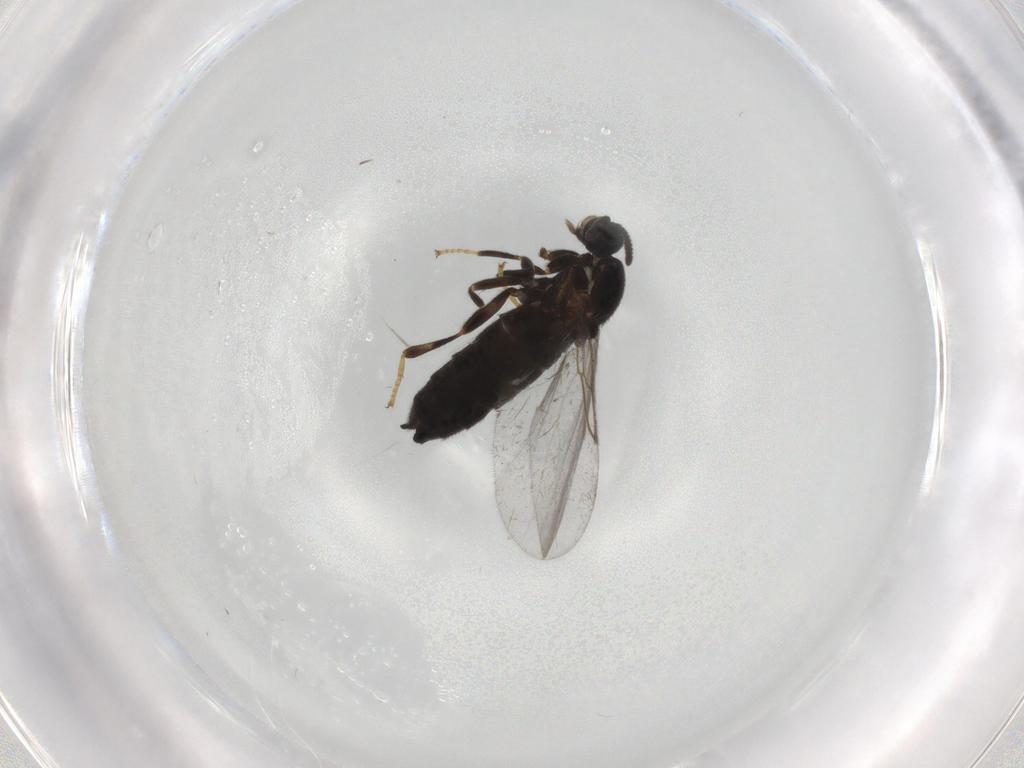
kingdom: Animalia
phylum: Arthropoda
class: Insecta
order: Diptera
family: Scatopsidae
